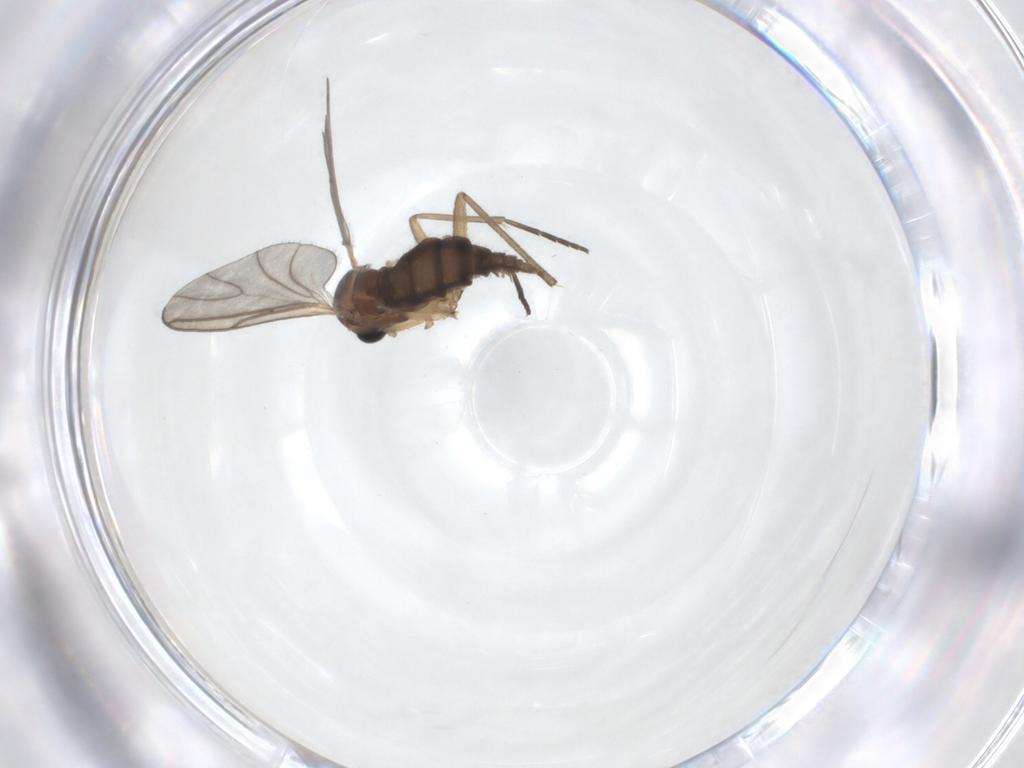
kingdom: Animalia
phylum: Arthropoda
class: Insecta
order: Diptera
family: Sciaridae
